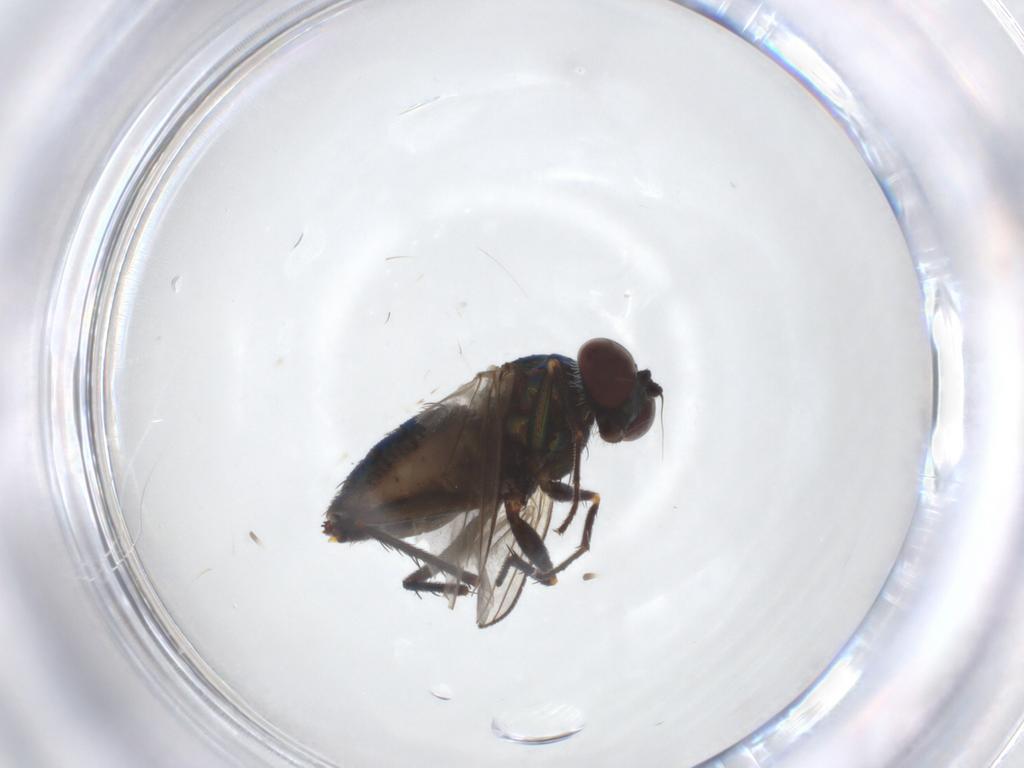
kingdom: Animalia
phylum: Arthropoda
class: Insecta
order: Diptera
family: Dolichopodidae
